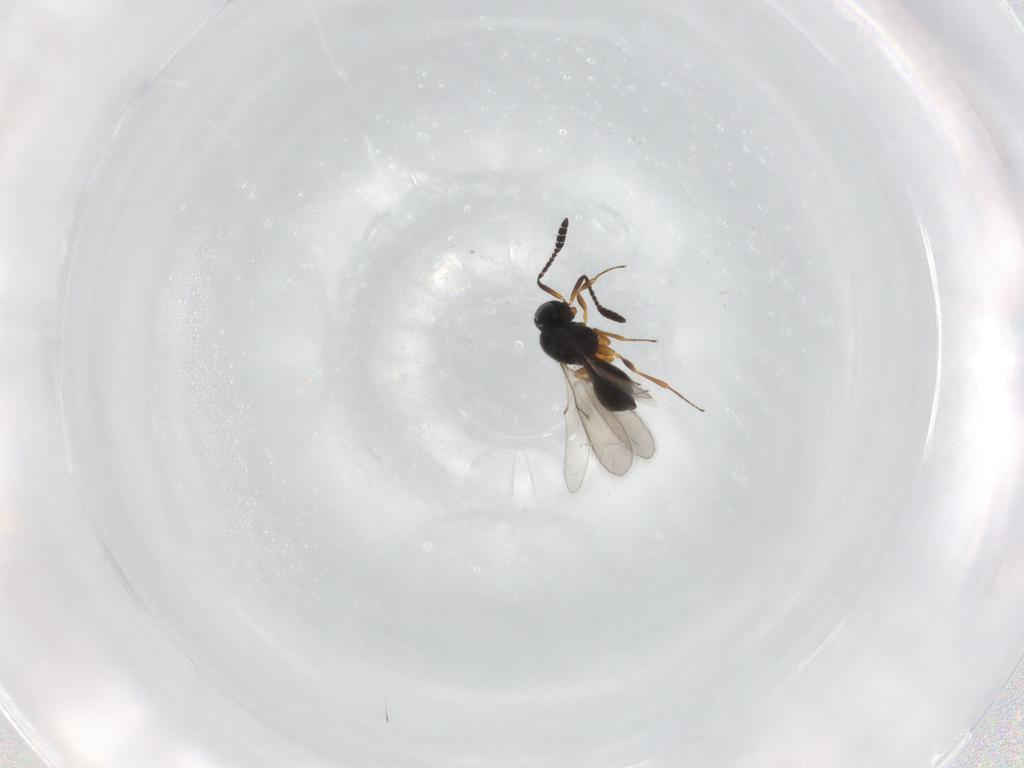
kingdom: Animalia
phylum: Arthropoda
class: Insecta
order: Hymenoptera
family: Scelionidae
